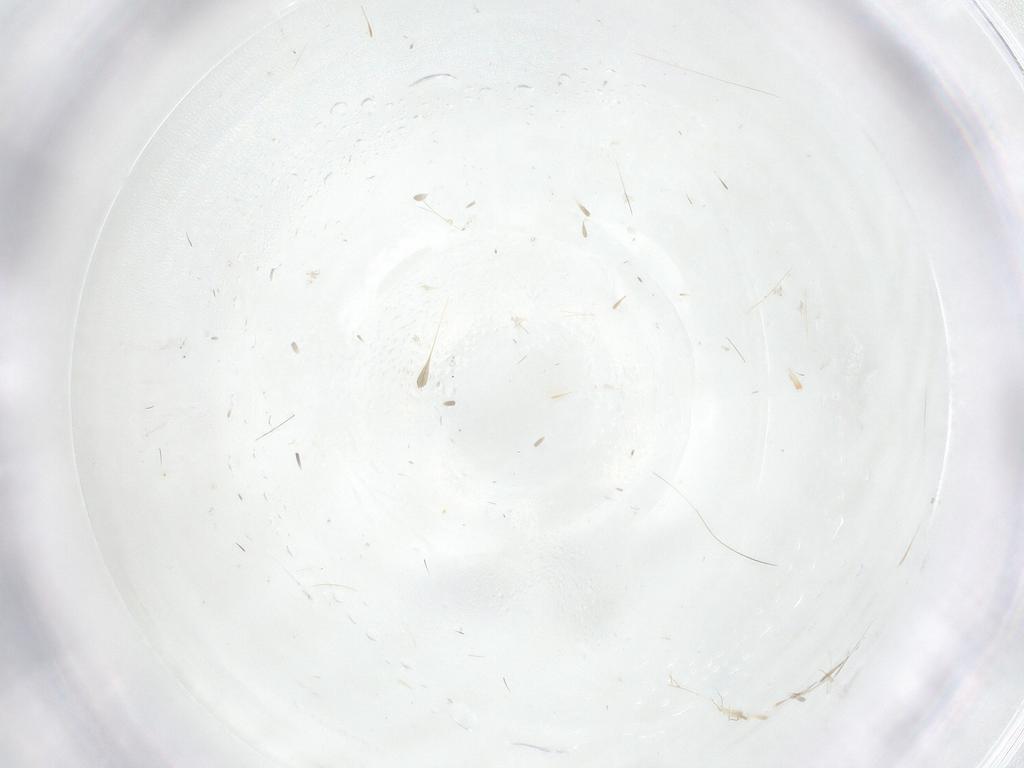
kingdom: Animalia
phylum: Arthropoda
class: Insecta
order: Diptera
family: Cecidomyiidae
